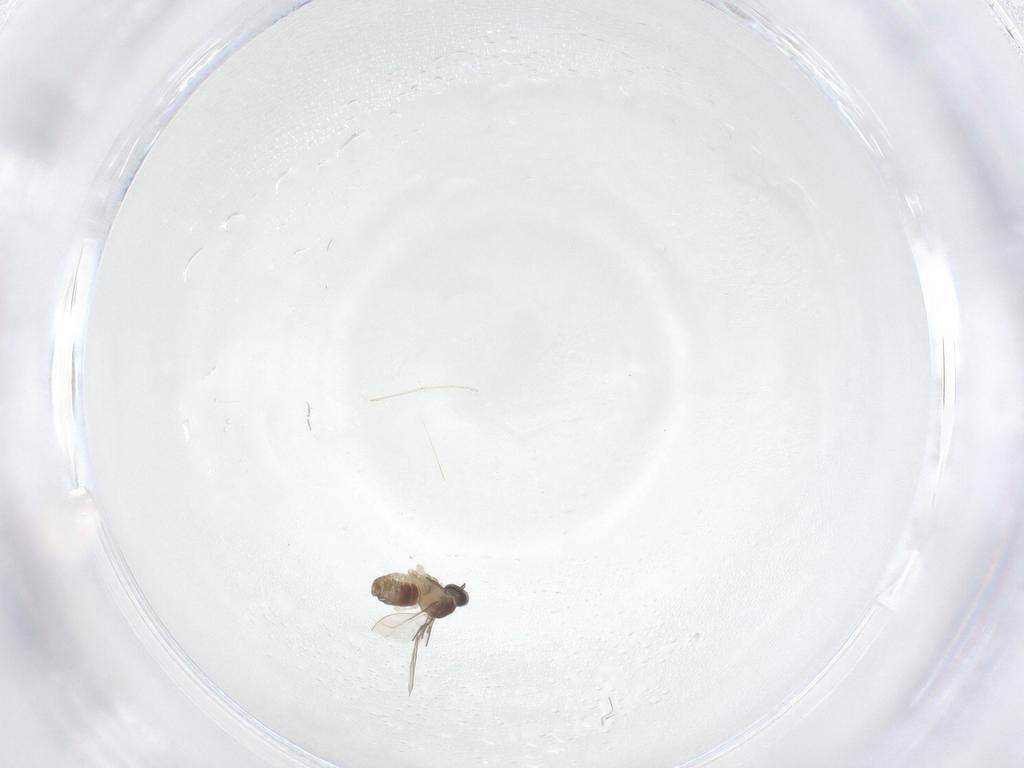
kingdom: Animalia
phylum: Arthropoda
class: Insecta
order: Diptera
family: Cecidomyiidae
